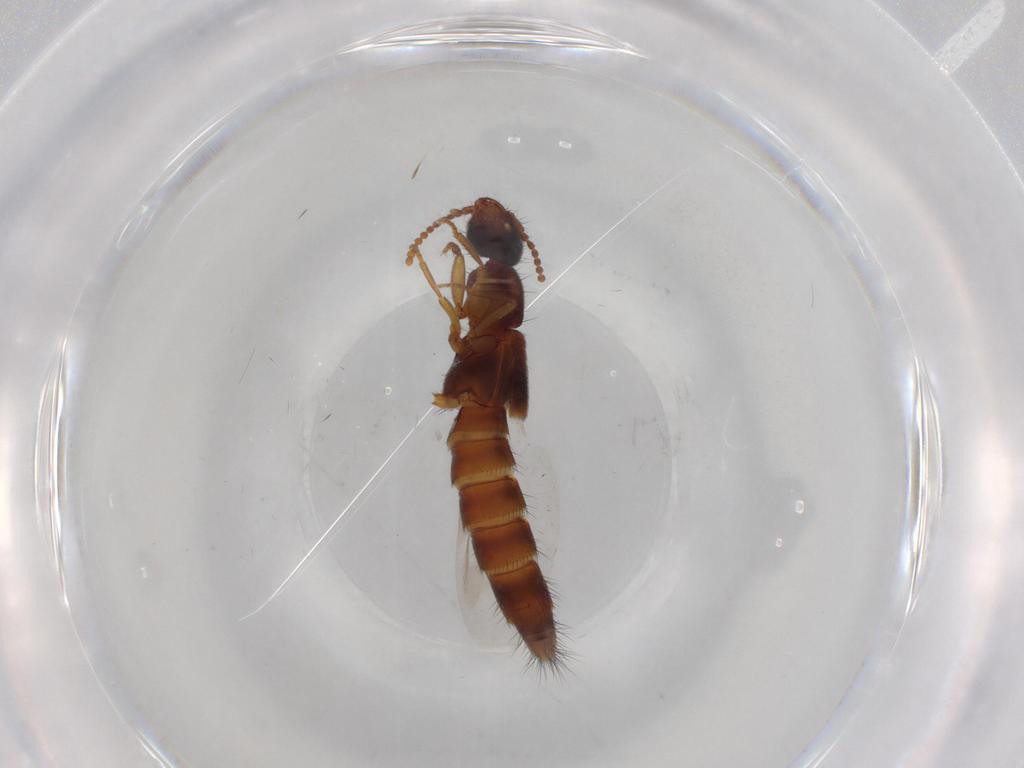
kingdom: Animalia
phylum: Arthropoda
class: Insecta
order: Coleoptera
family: Staphylinidae
